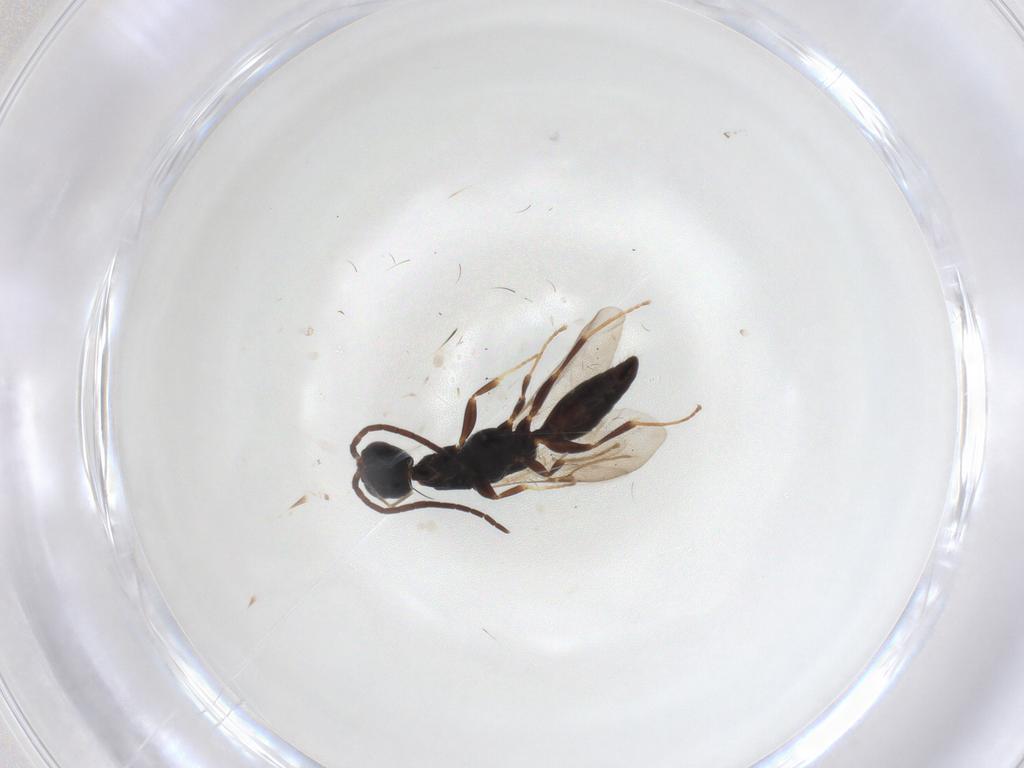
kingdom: Animalia
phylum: Arthropoda
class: Insecta
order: Hymenoptera
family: Bethylidae
